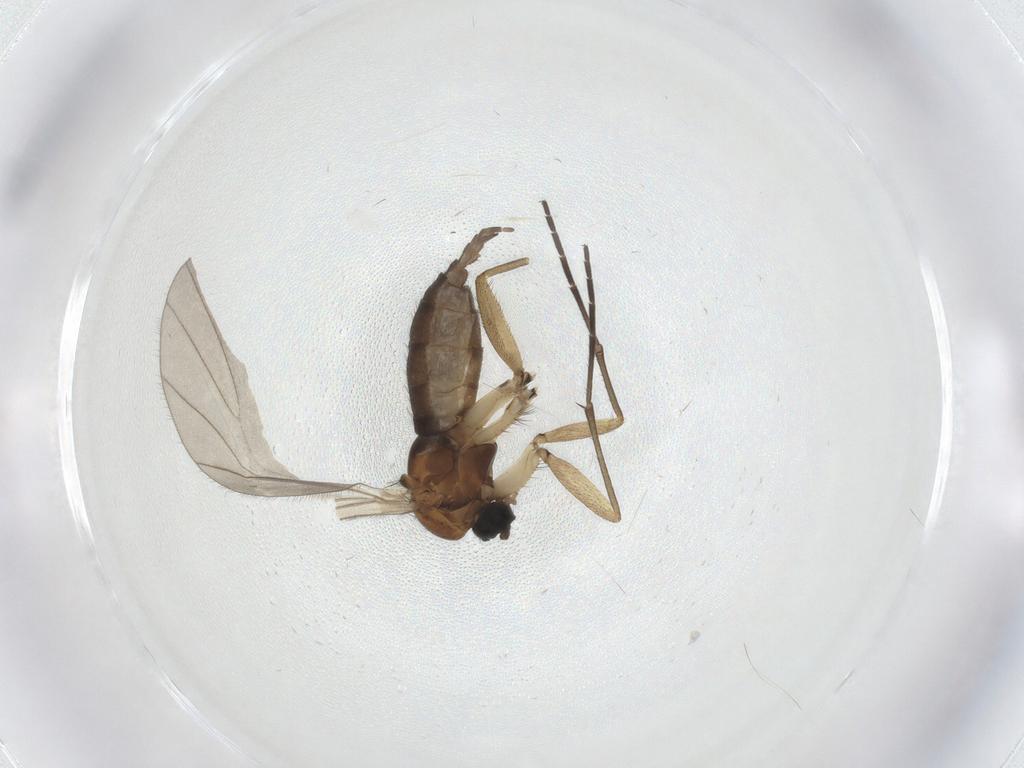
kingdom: Animalia
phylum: Arthropoda
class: Insecta
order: Diptera
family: Sciaridae
